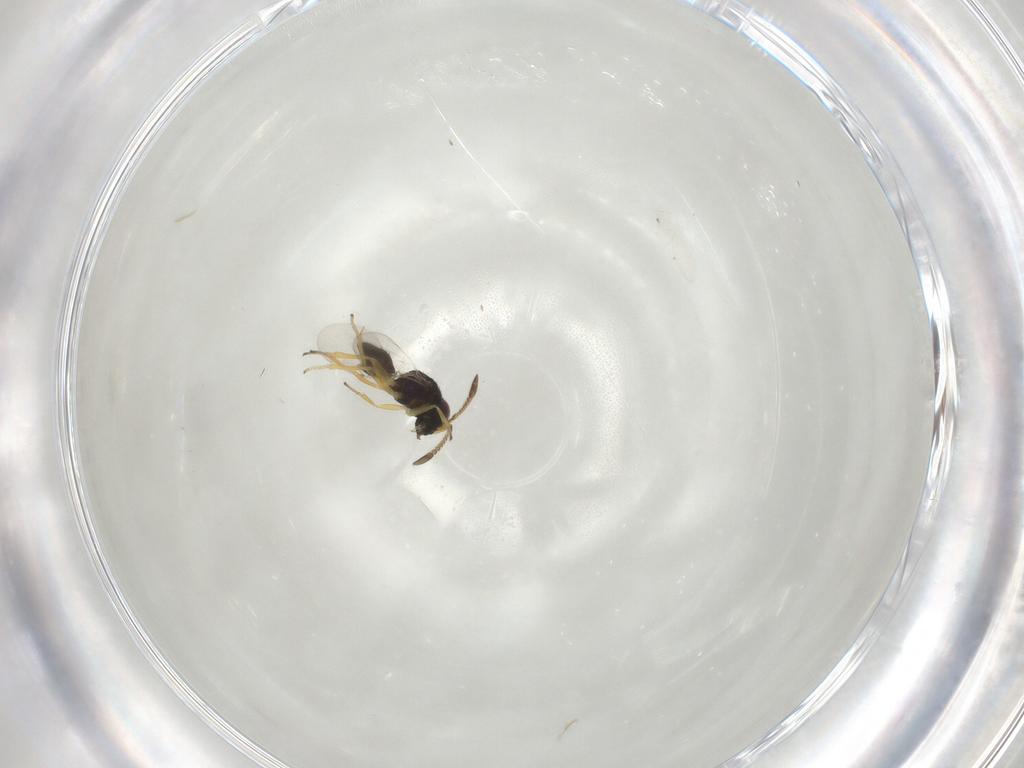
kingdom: Animalia
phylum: Arthropoda
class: Insecta
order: Hymenoptera
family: Encyrtidae
